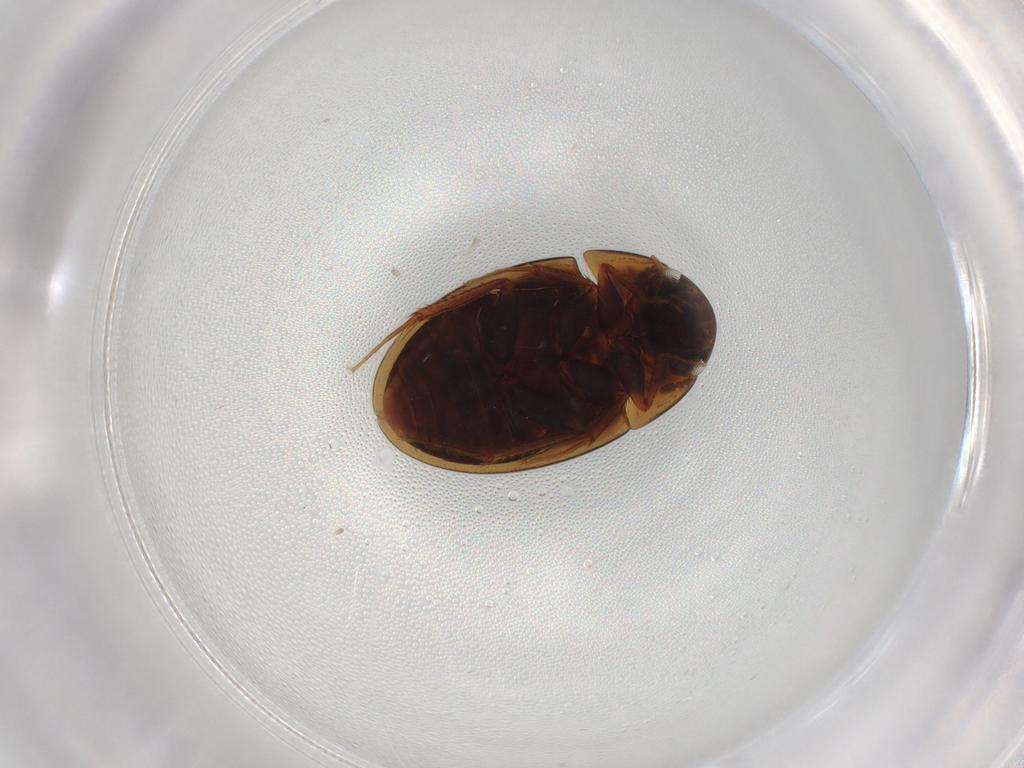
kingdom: Animalia
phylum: Arthropoda
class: Insecta
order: Coleoptera
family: Hydrophilidae
